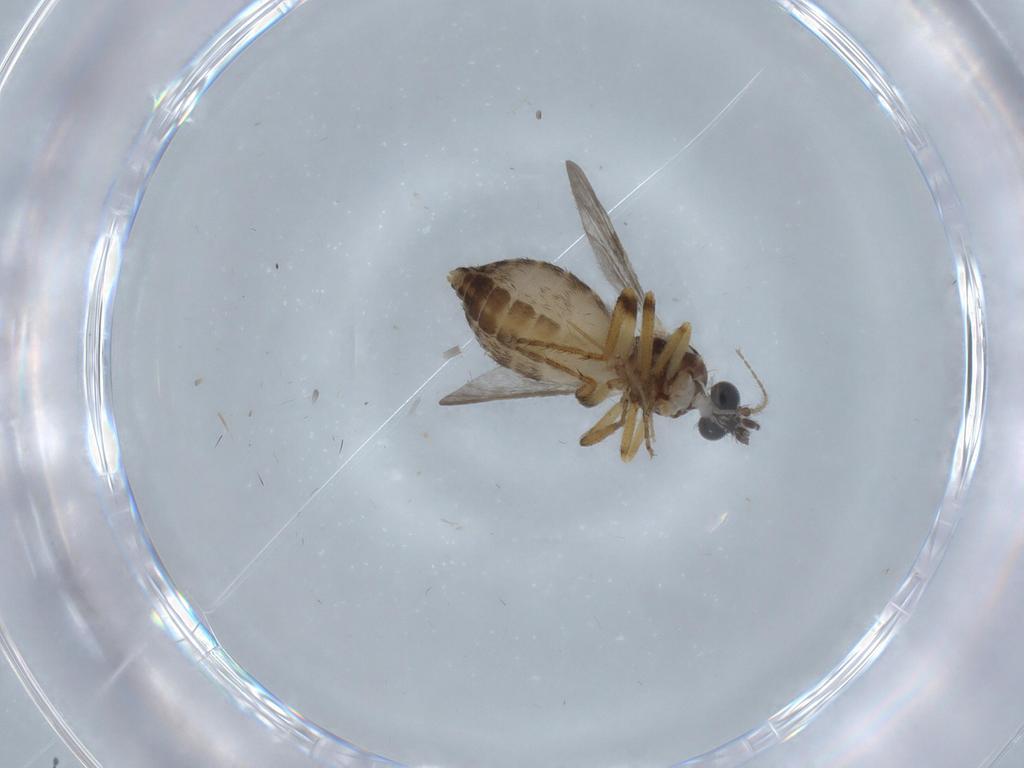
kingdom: Animalia
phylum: Arthropoda
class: Insecta
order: Diptera
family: Ceratopogonidae
